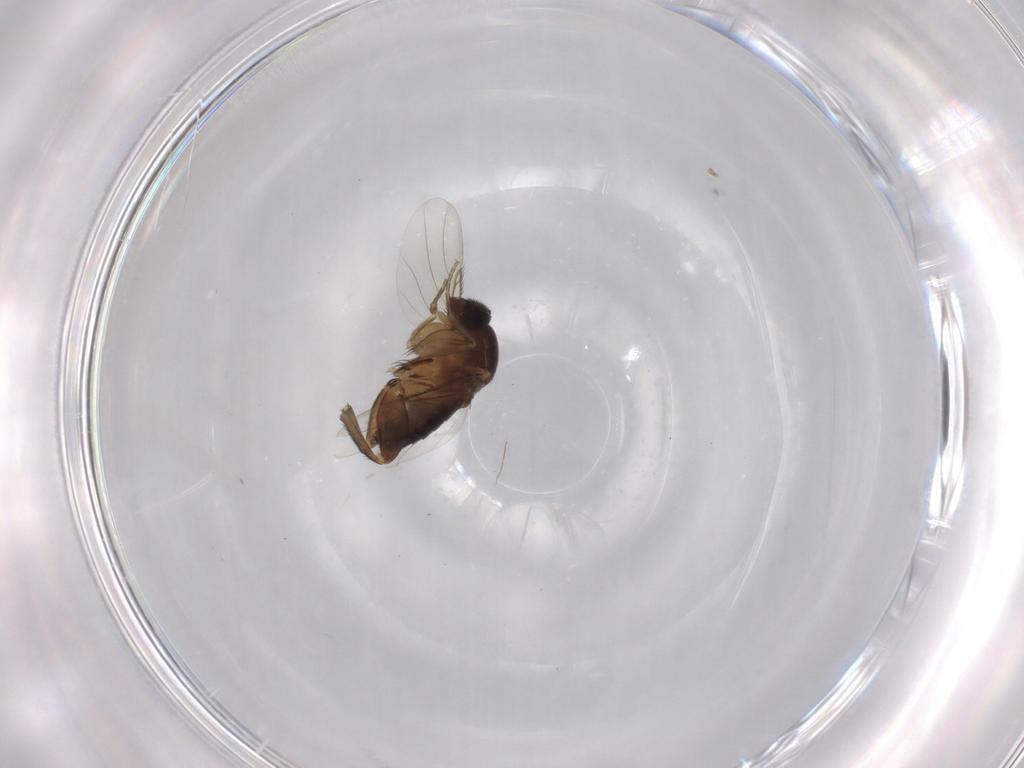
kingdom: Animalia
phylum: Arthropoda
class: Insecta
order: Diptera
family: Phoridae
